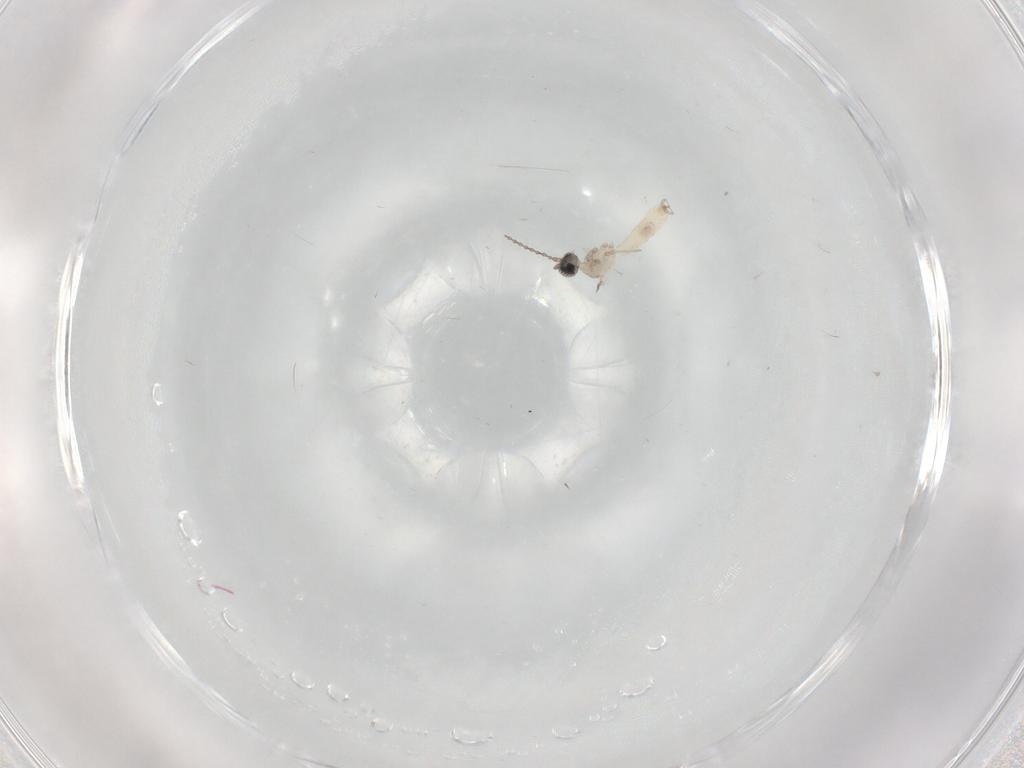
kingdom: Animalia
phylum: Arthropoda
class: Insecta
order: Diptera
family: Cecidomyiidae
